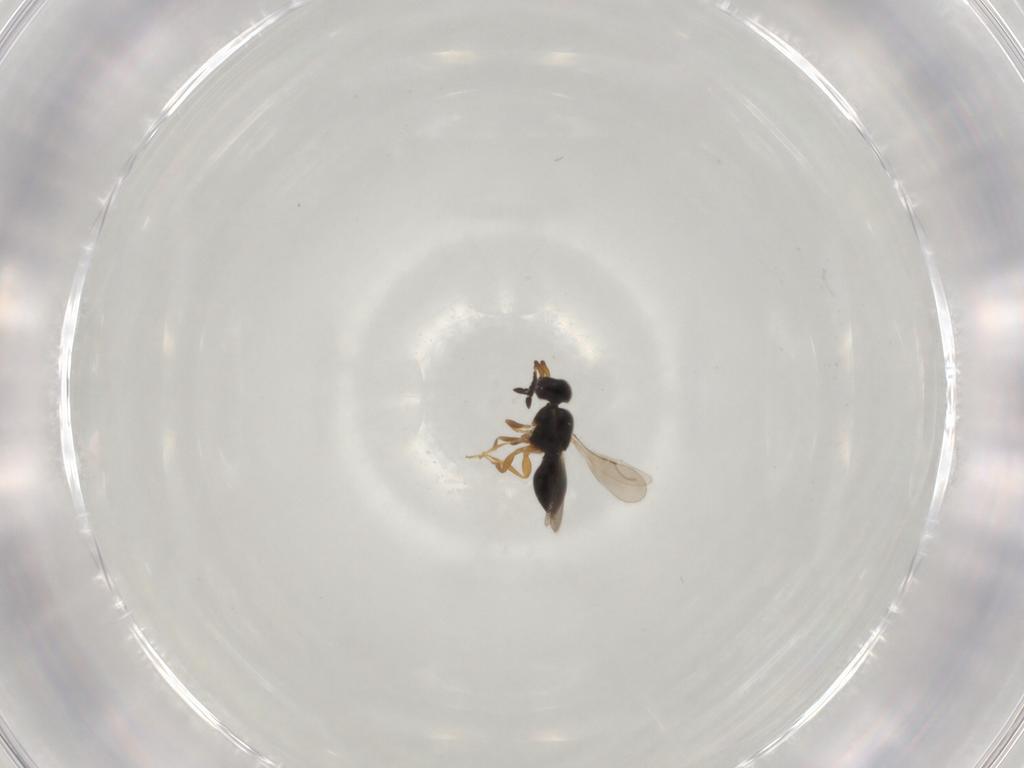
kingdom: Animalia
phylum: Arthropoda
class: Insecta
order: Hymenoptera
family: Ceraphronidae
